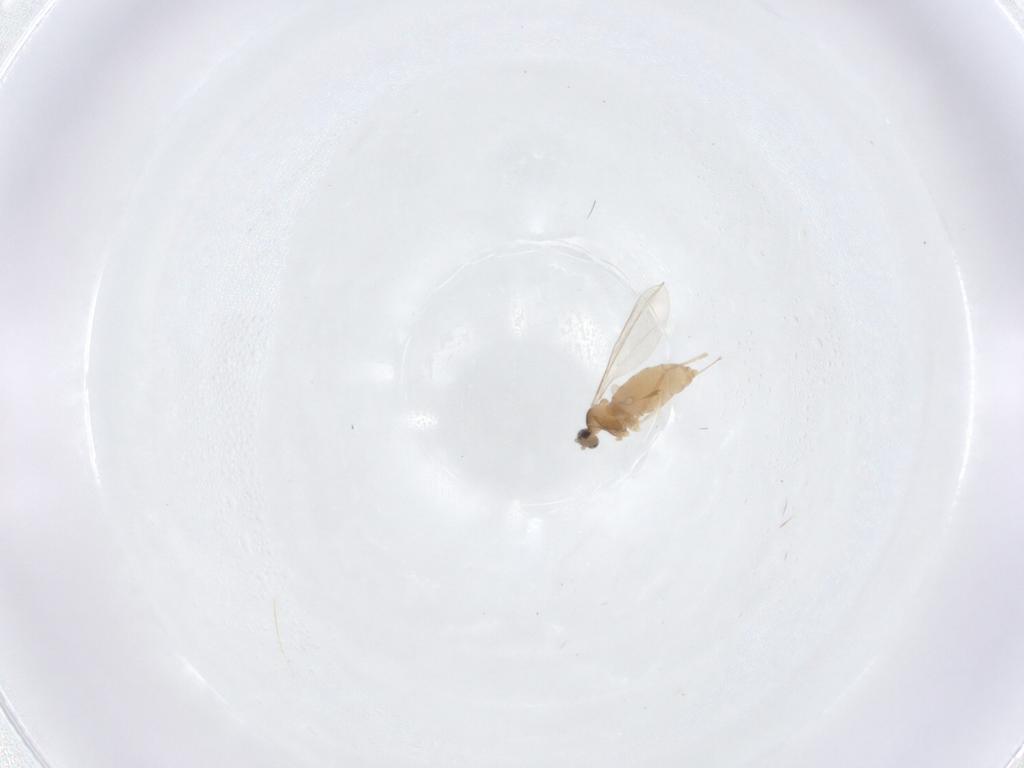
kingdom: Animalia
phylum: Arthropoda
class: Insecta
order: Diptera
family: Cecidomyiidae
